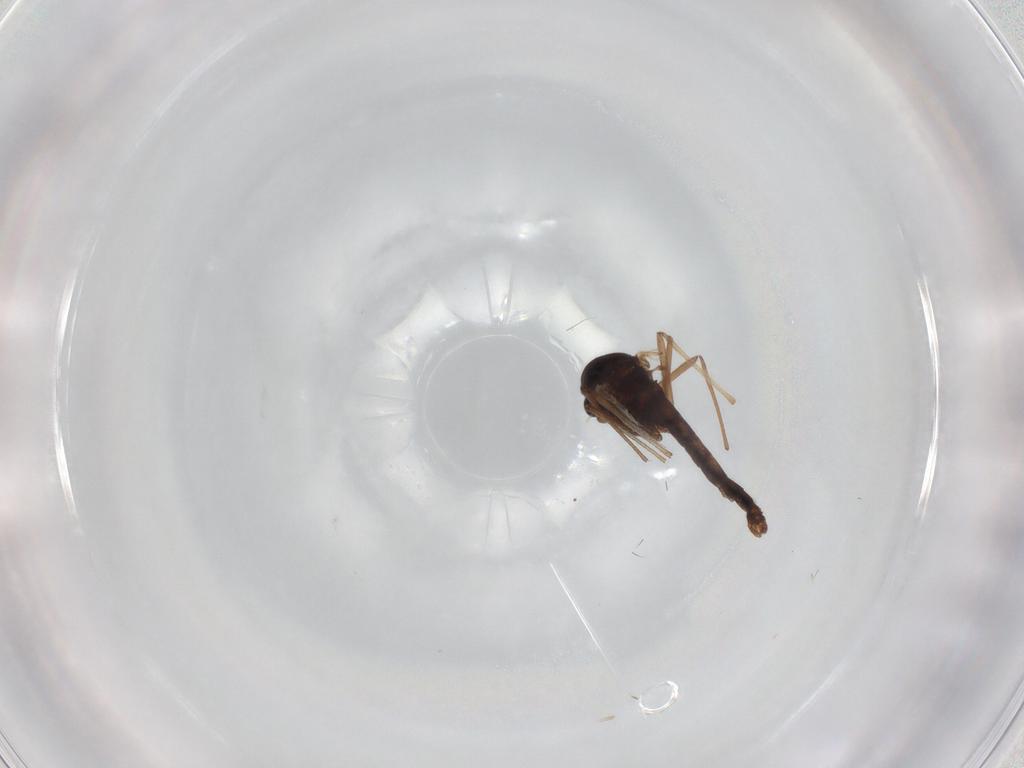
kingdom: Animalia
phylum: Arthropoda
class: Insecta
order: Diptera
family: Chironomidae
